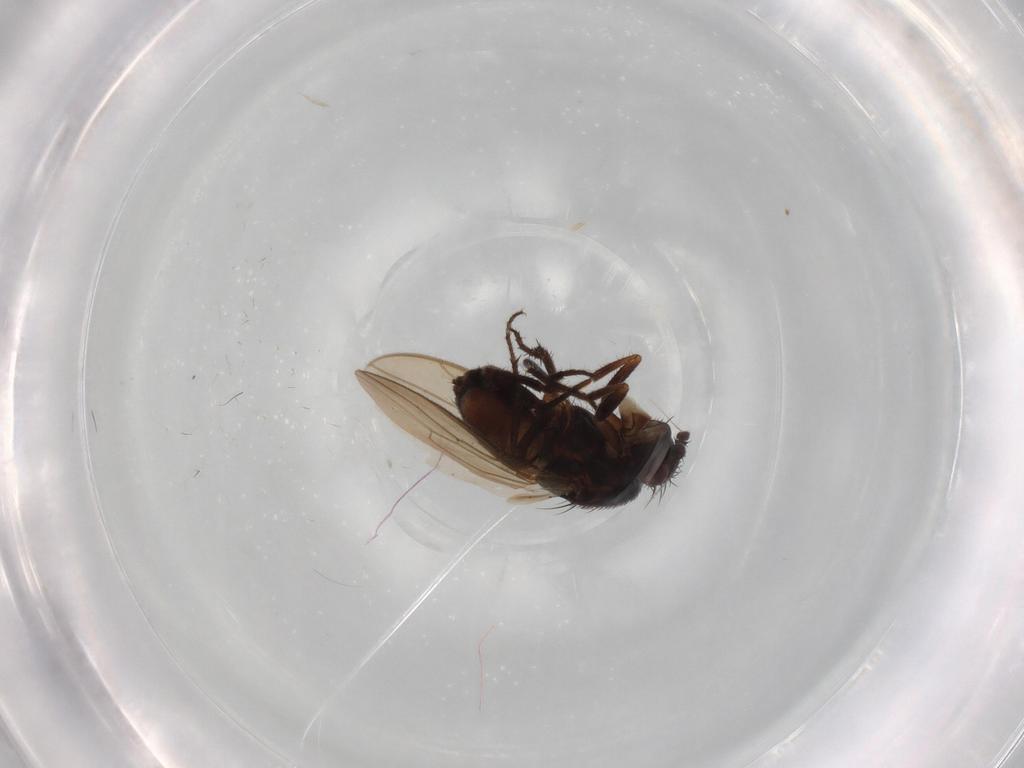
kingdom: Animalia
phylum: Arthropoda
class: Insecta
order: Diptera
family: Sphaeroceridae
